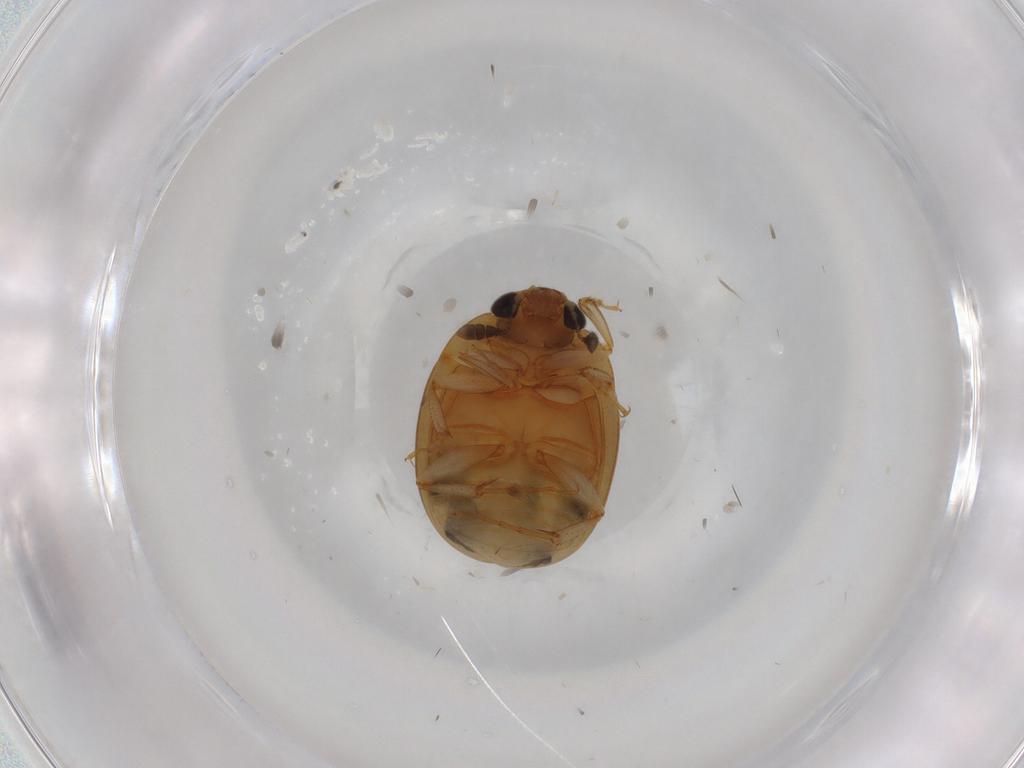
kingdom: Animalia
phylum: Arthropoda
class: Insecta
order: Coleoptera
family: Nitidulidae
